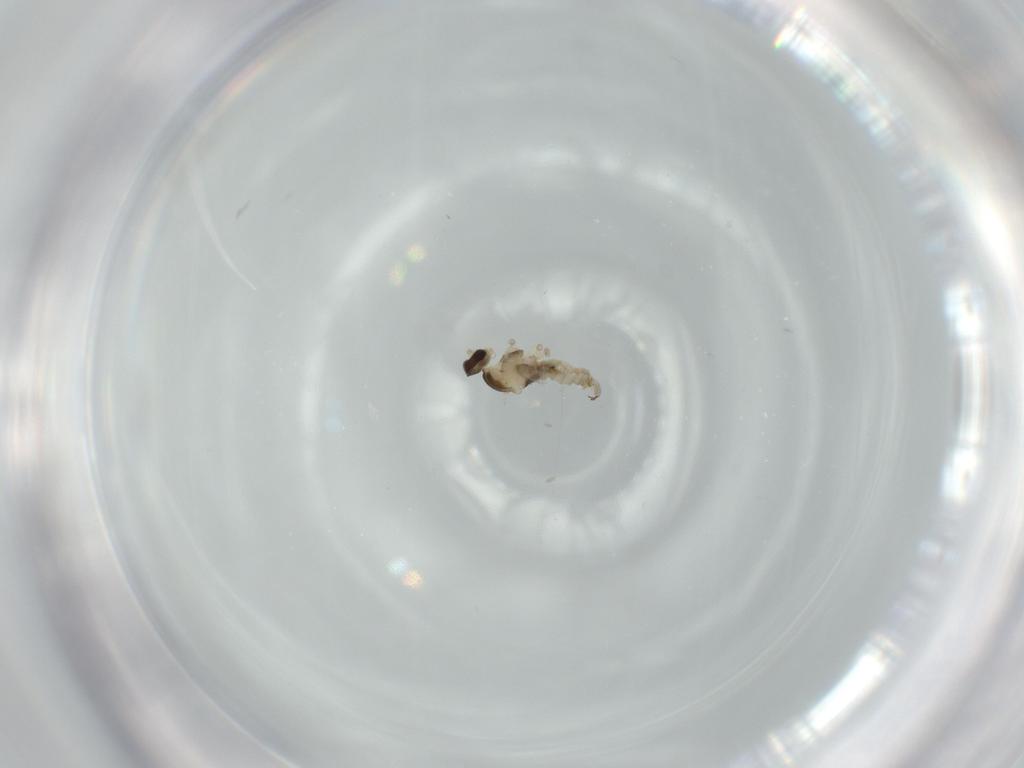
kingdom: Animalia
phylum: Arthropoda
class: Insecta
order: Diptera
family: Cecidomyiidae
